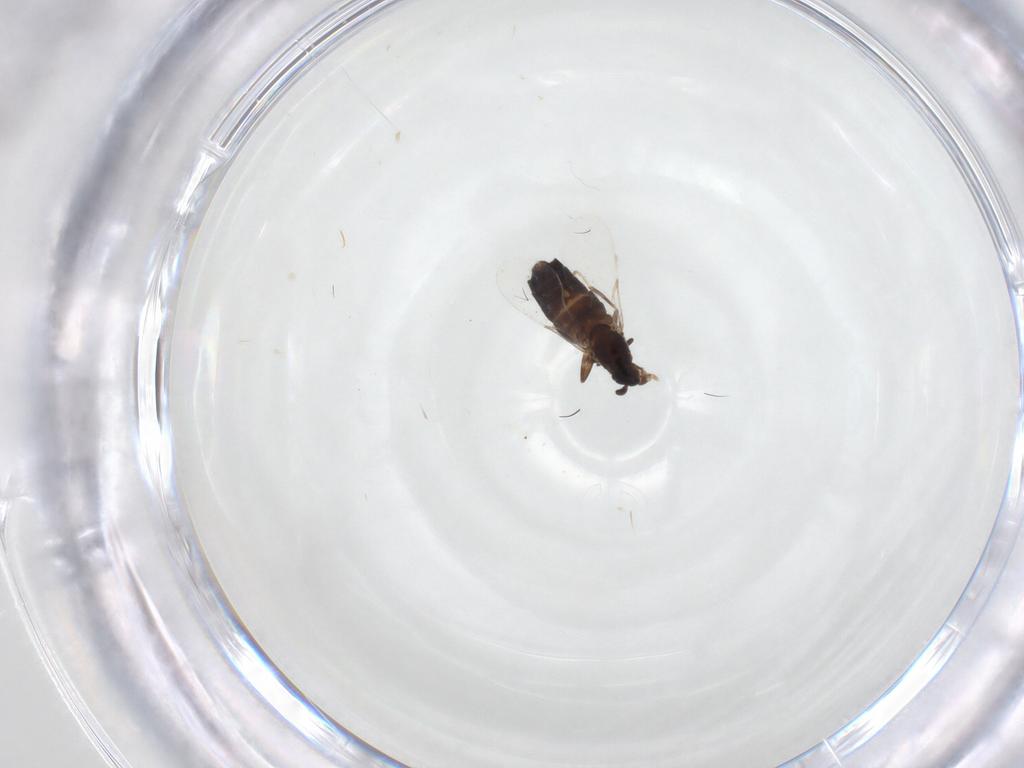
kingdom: Animalia
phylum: Arthropoda
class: Insecta
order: Diptera
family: Scatopsidae
